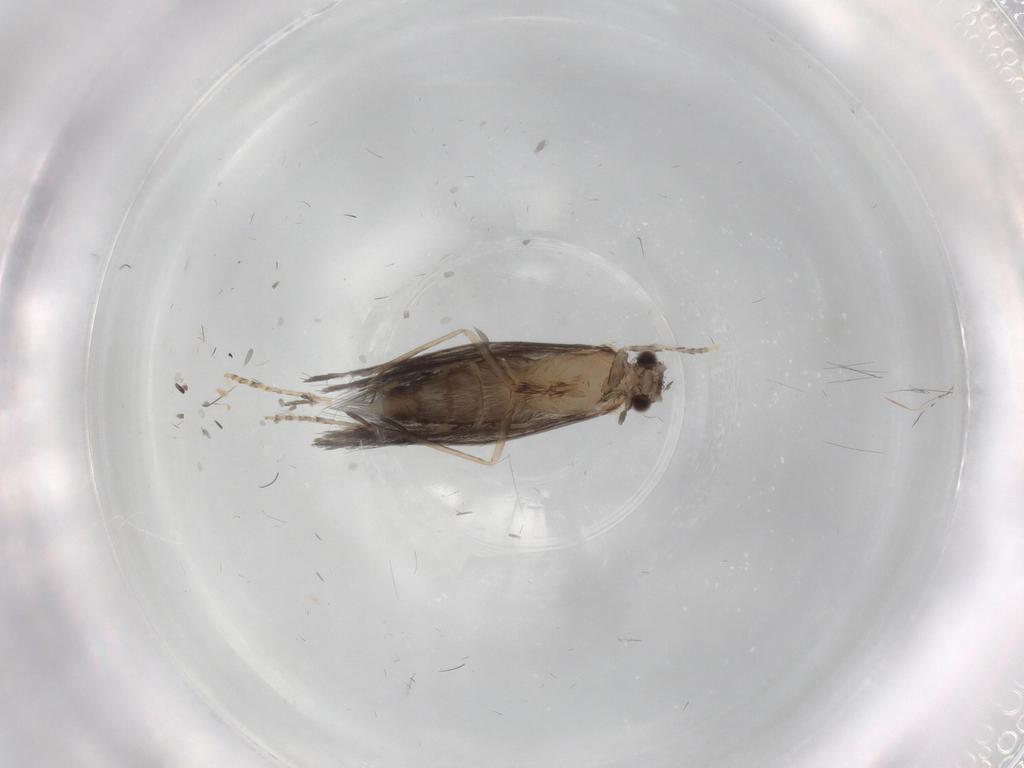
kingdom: Animalia
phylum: Arthropoda
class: Insecta
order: Trichoptera
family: Hydroptilidae
